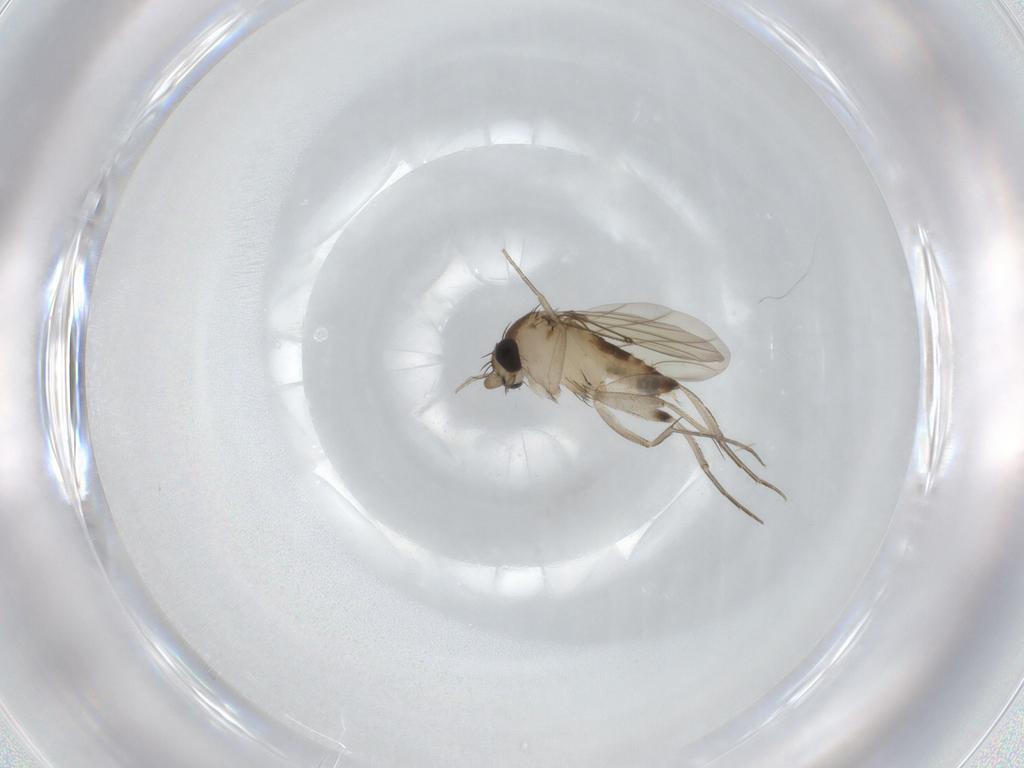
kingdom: Animalia
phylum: Arthropoda
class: Insecta
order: Diptera
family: Phoridae
